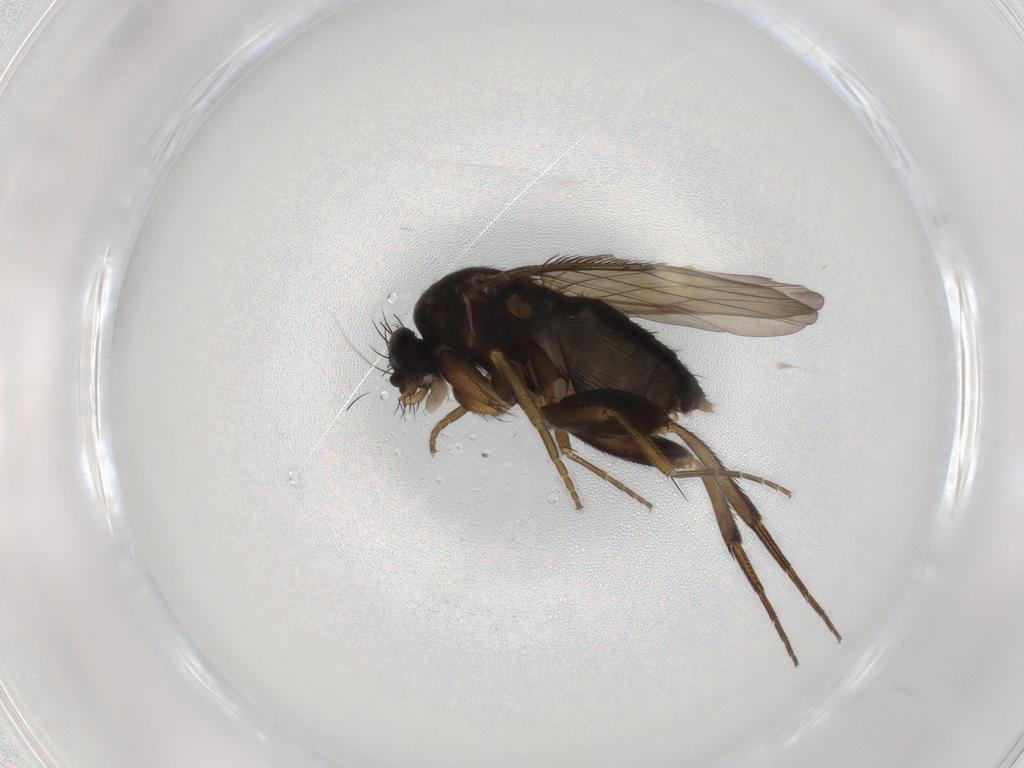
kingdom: Animalia
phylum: Arthropoda
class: Insecta
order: Diptera
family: Phoridae
